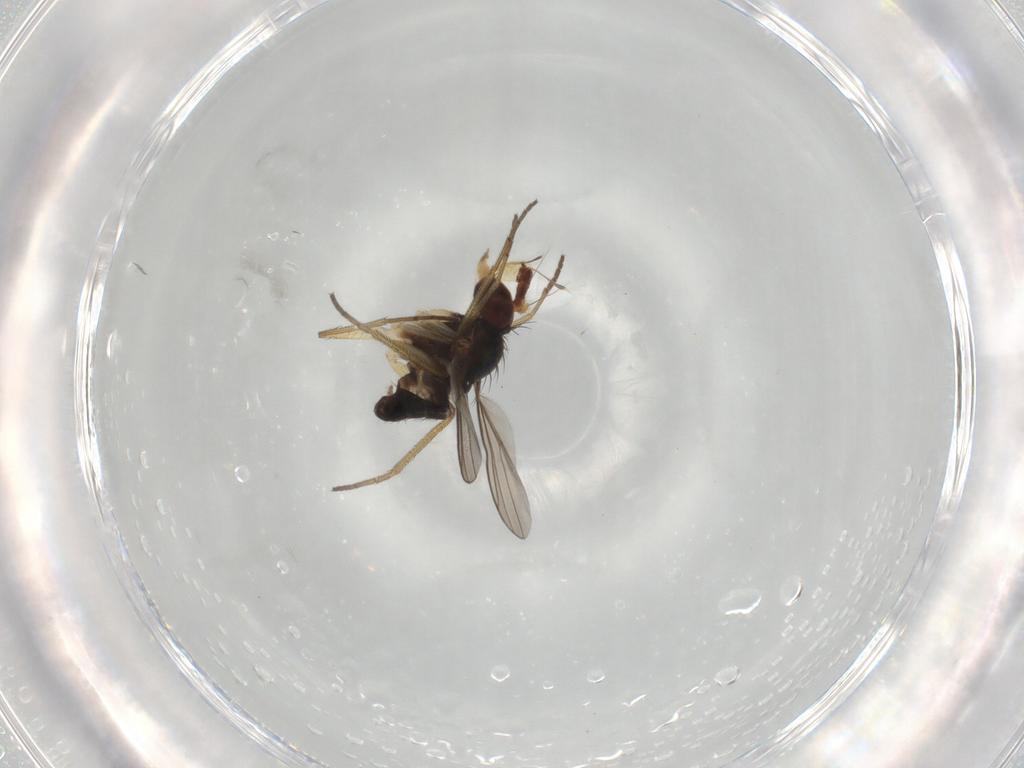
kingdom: Animalia
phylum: Arthropoda
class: Insecta
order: Diptera
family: Dolichopodidae
